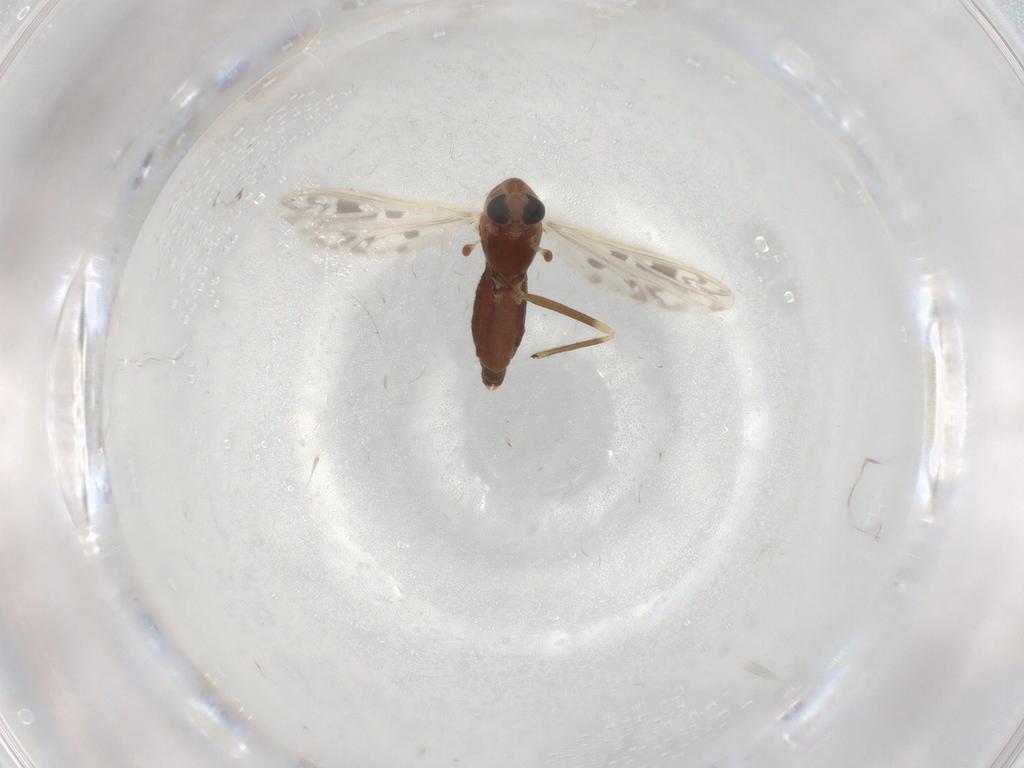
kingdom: Animalia
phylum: Arthropoda
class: Insecta
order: Diptera
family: Chironomidae
